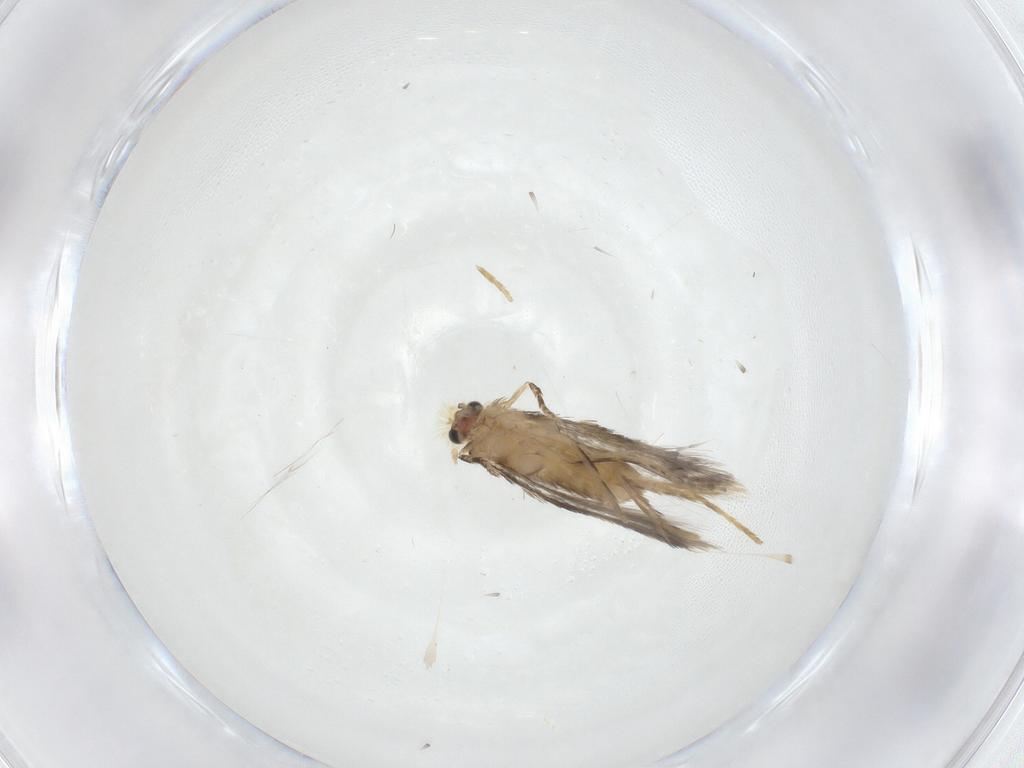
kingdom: Animalia
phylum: Arthropoda
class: Insecta
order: Lepidoptera
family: Nepticulidae
